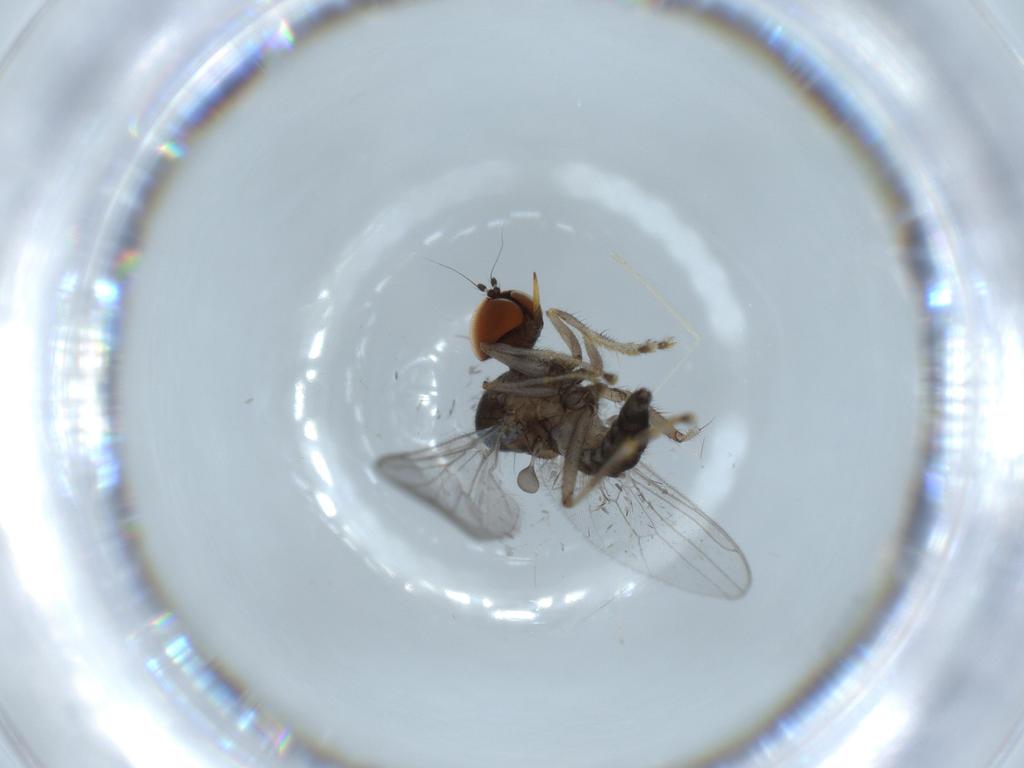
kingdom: Animalia
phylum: Arthropoda
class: Insecta
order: Diptera
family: Hybotidae
